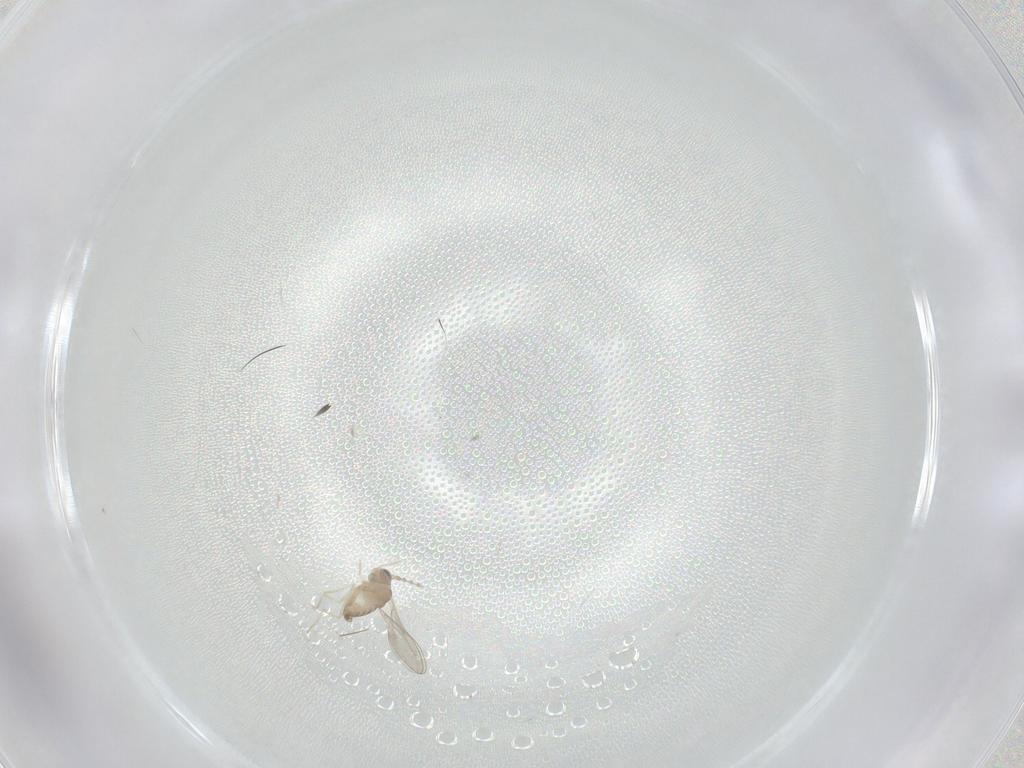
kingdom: Animalia
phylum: Arthropoda
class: Insecta
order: Diptera
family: Cecidomyiidae
